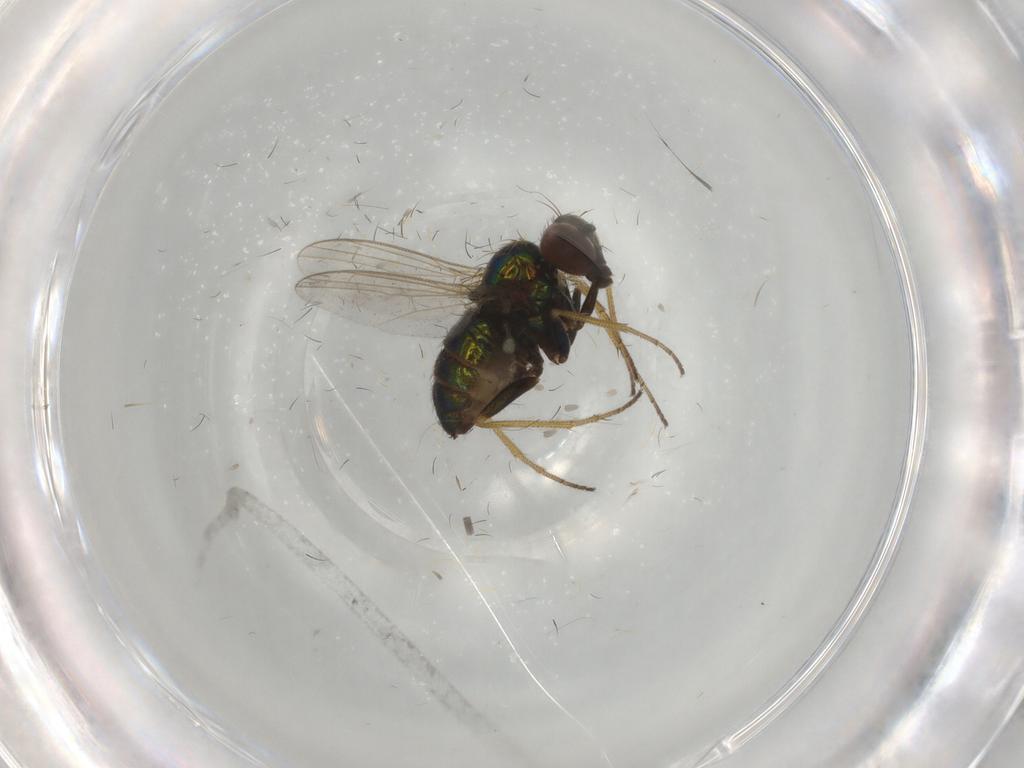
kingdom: Animalia
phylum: Arthropoda
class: Insecta
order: Diptera
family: Dolichopodidae
